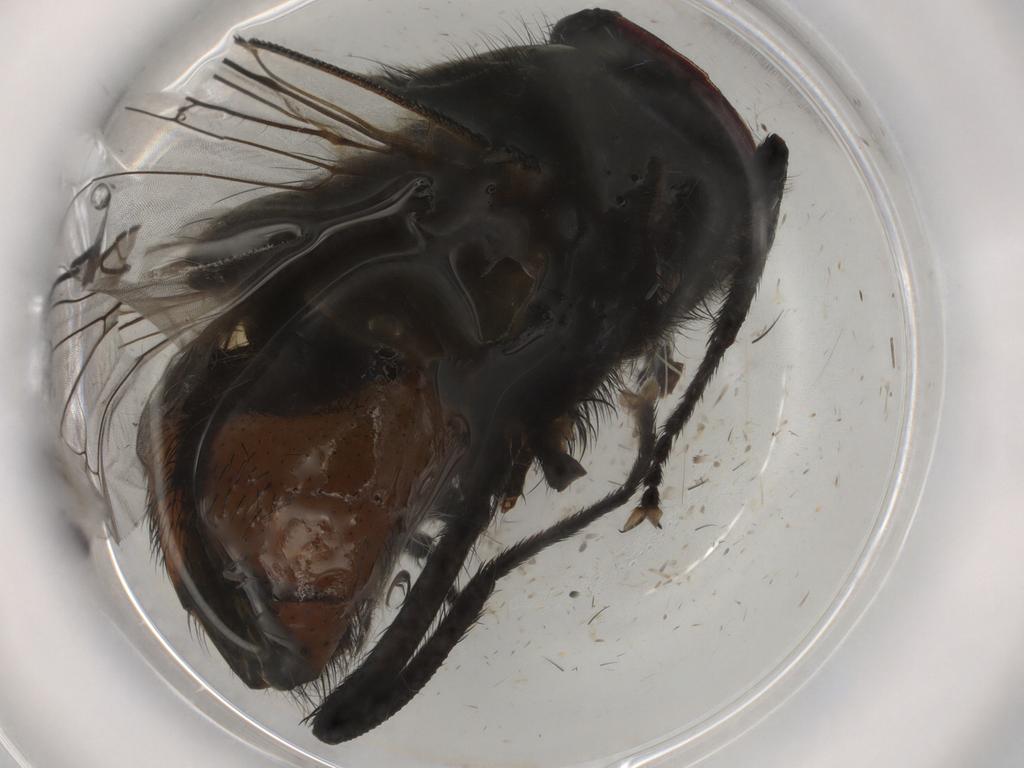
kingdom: Animalia
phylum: Arthropoda
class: Insecta
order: Diptera
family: Muscidae
